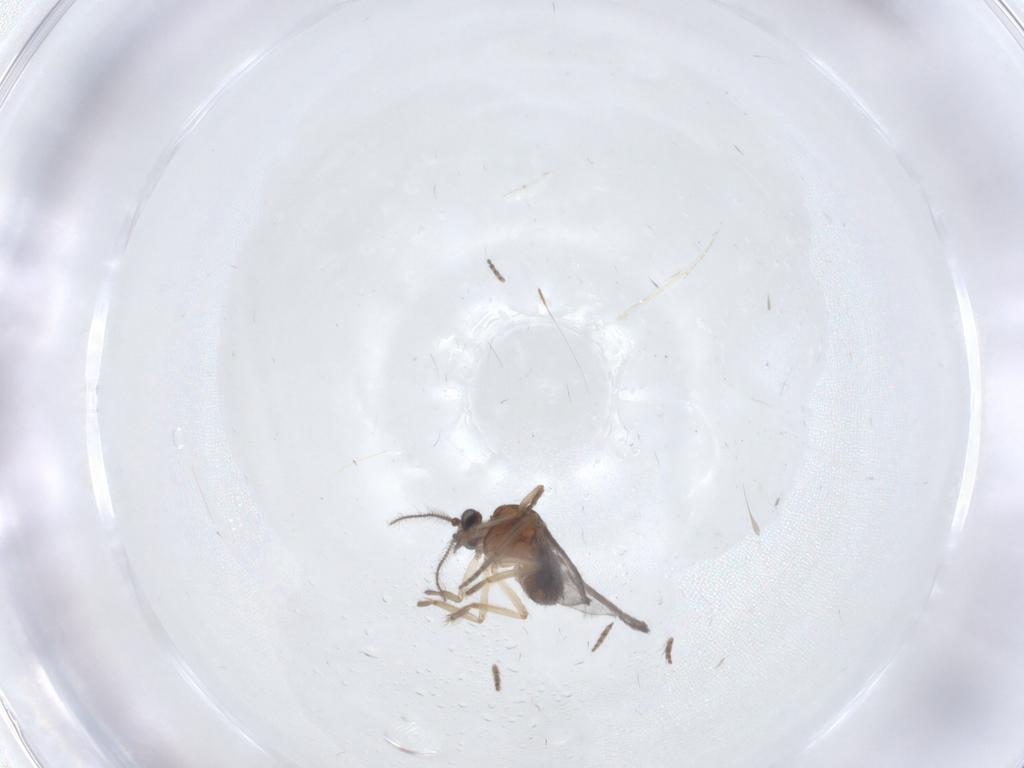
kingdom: Animalia
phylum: Arthropoda
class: Insecta
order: Diptera
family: Ceratopogonidae
